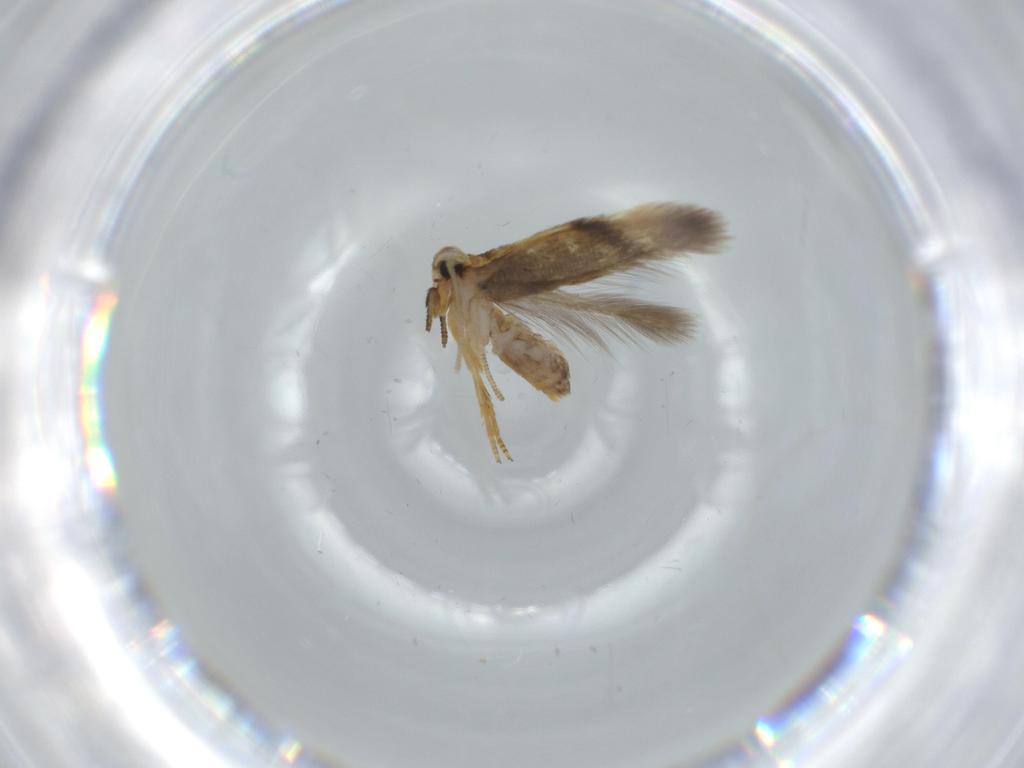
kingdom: Animalia
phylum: Arthropoda
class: Insecta
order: Lepidoptera
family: Nepticulidae
